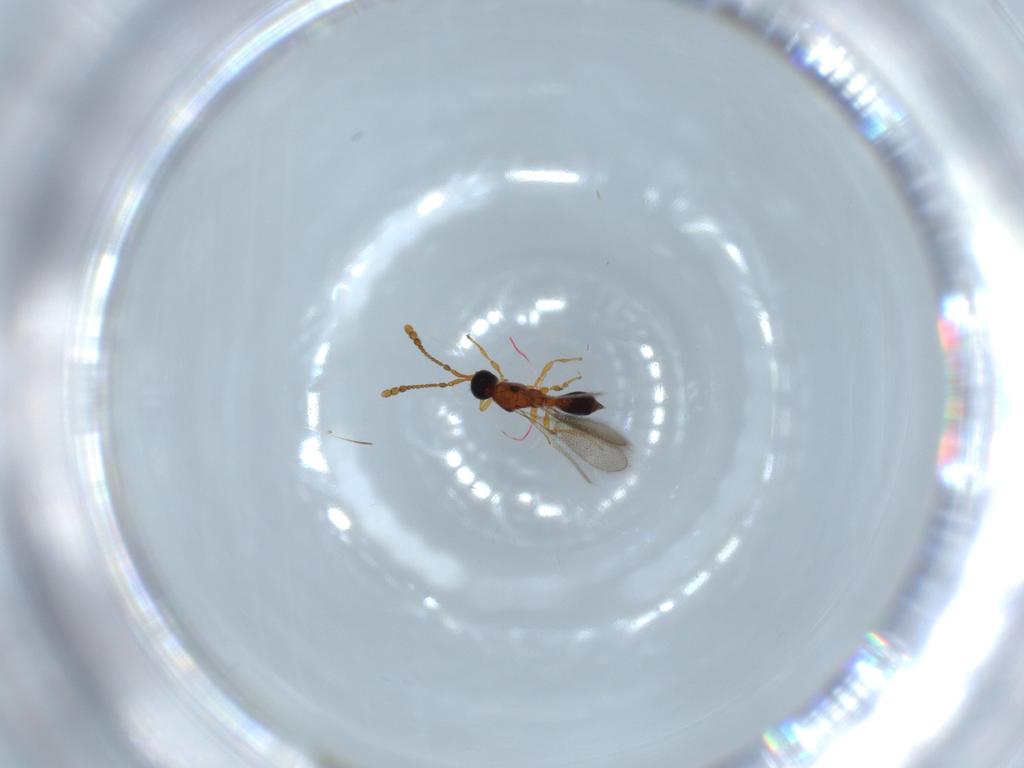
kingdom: Animalia
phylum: Arthropoda
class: Insecta
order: Hymenoptera
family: Diapriidae
